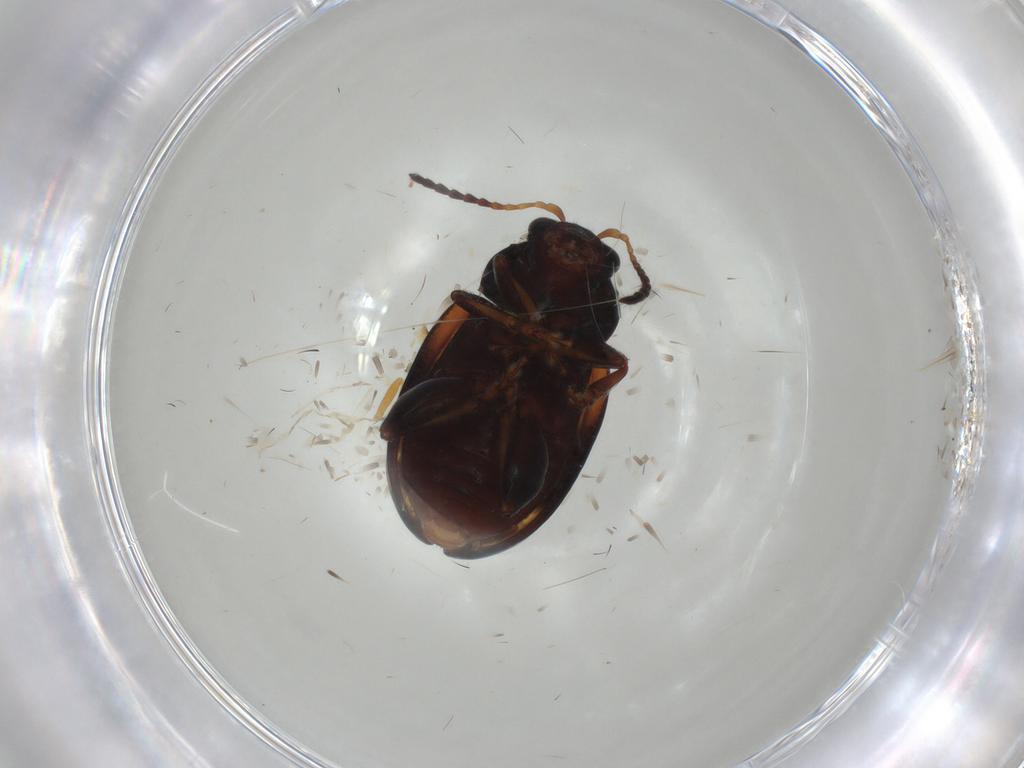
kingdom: Animalia
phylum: Arthropoda
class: Insecta
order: Coleoptera
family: Chrysomelidae
